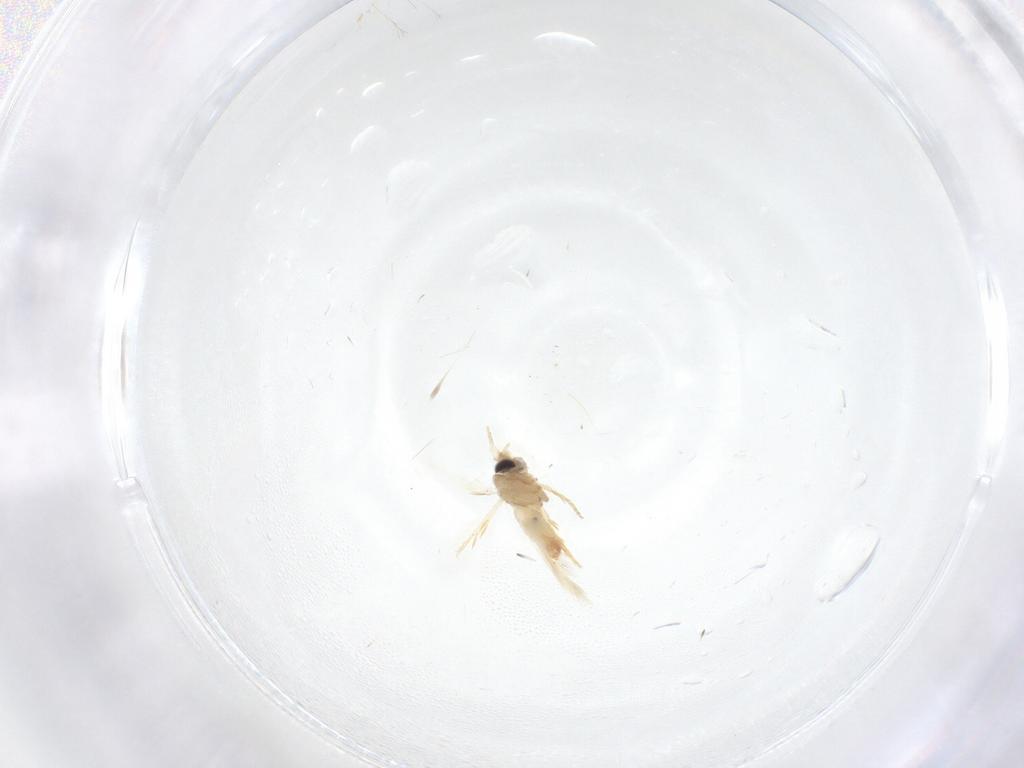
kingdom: Animalia
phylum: Arthropoda
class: Insecta
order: Lepidoptera
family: Crambidae
